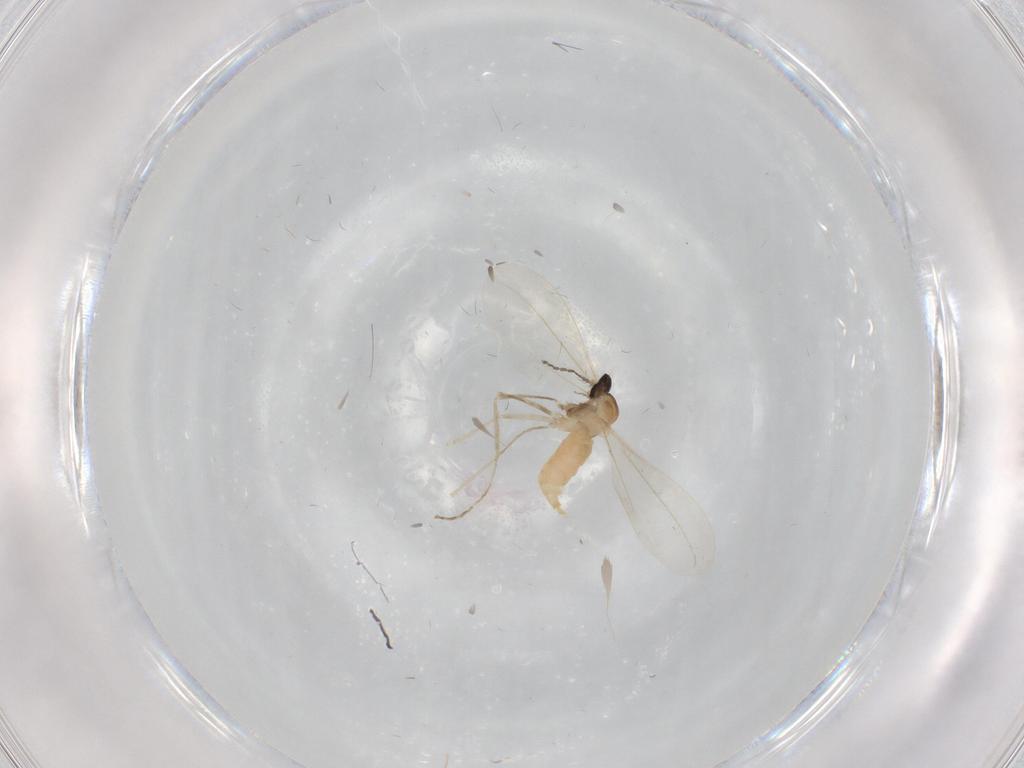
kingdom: Animalia
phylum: Arthropoda
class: Insecta
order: Diptera
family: Cecidomyiidae
